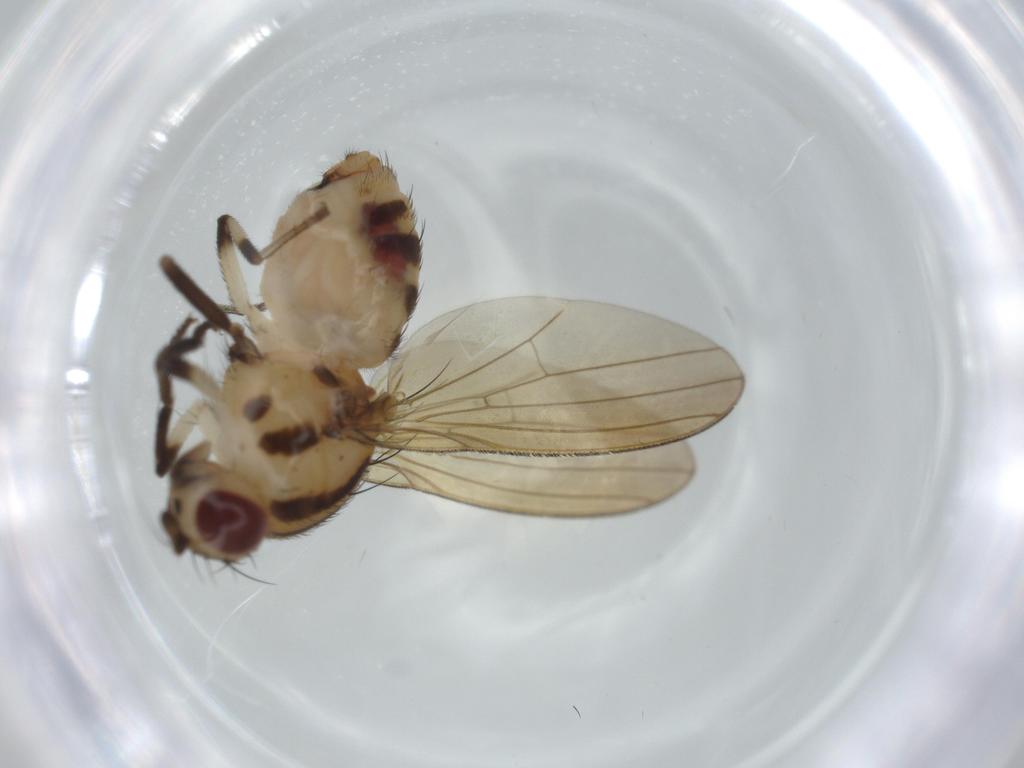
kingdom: Animalia
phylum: Arthropoda
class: Insecta
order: Diptera
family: Lauxaniidae
